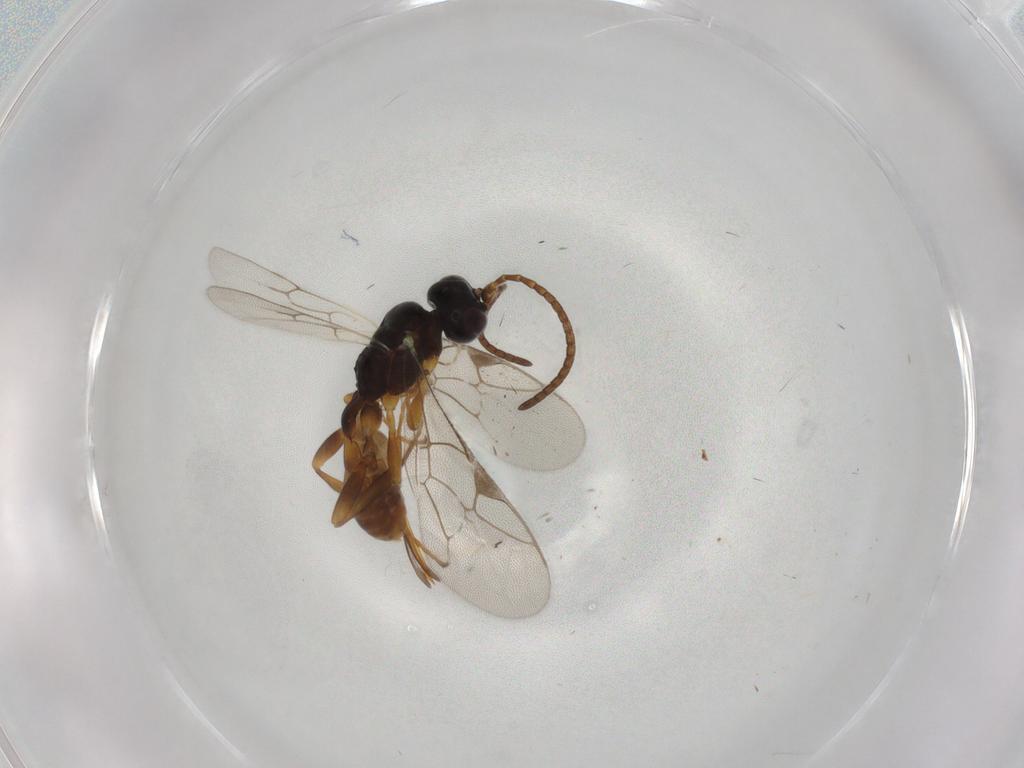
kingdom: Animalia
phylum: Arthropoda
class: Insecta
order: Hymenoptera
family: Ichneumonidae
